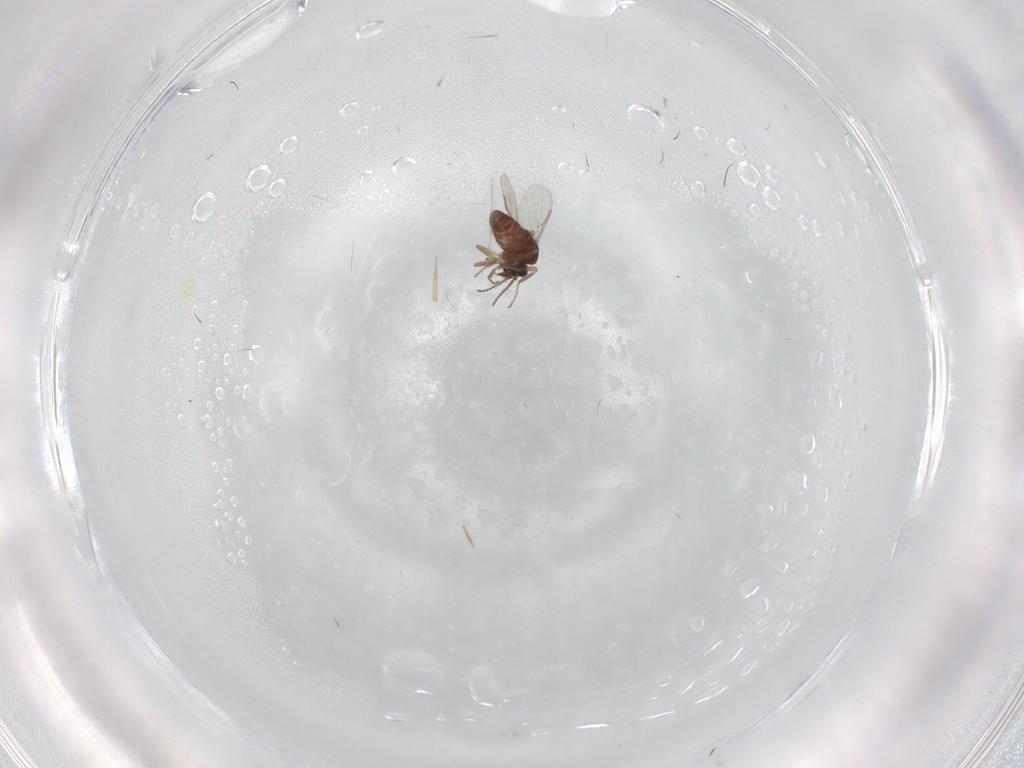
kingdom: Animalia
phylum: Arthropoda
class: Insecta
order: Diptera
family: Ceratopogonidae
